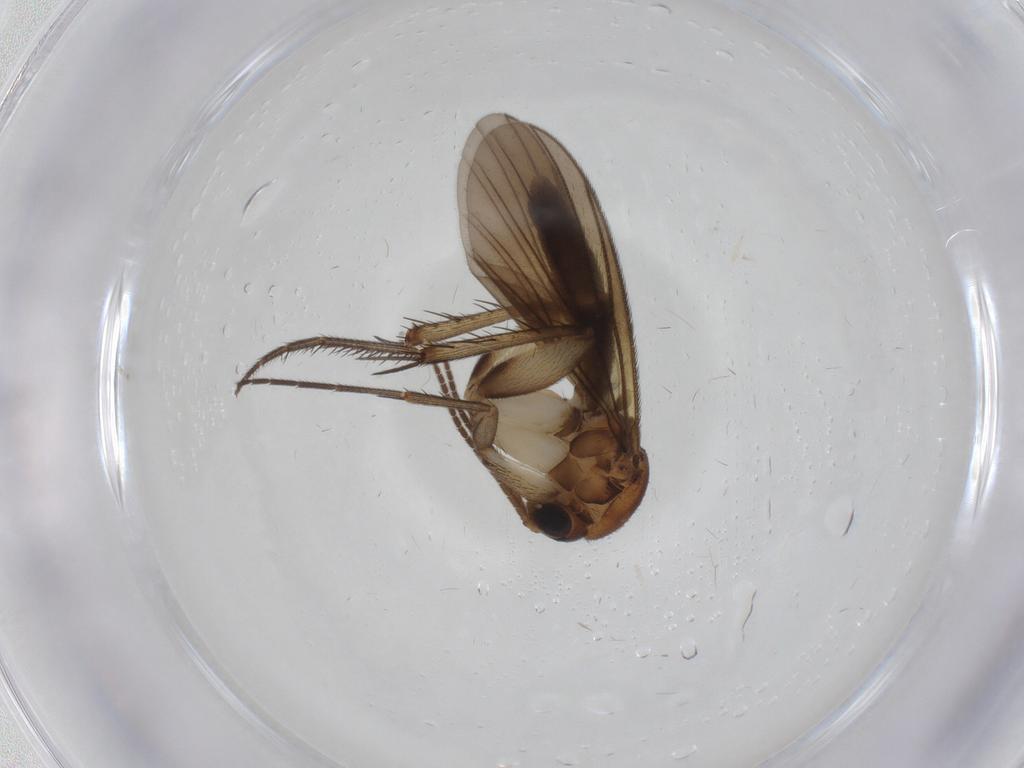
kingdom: Animalia
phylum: Arthropoda
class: Insecta
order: Diptera
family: Mycetophilidae
